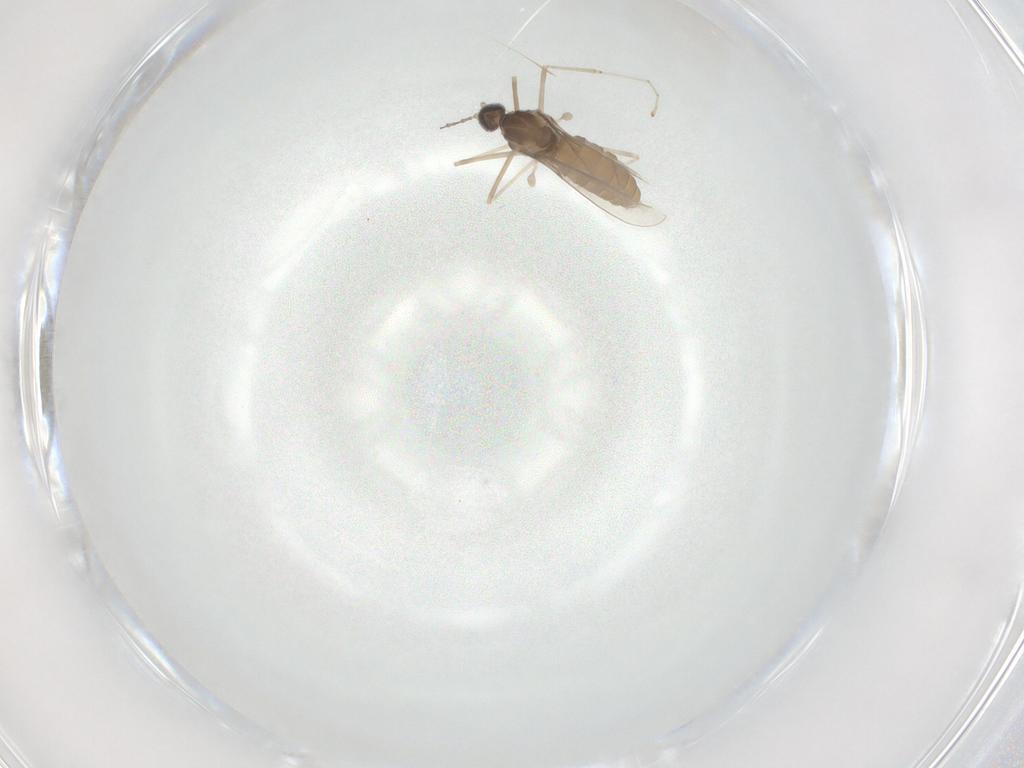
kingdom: Animalia
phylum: Arthropoda
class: Insecta
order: Diptera
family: Cecidomyiidae
